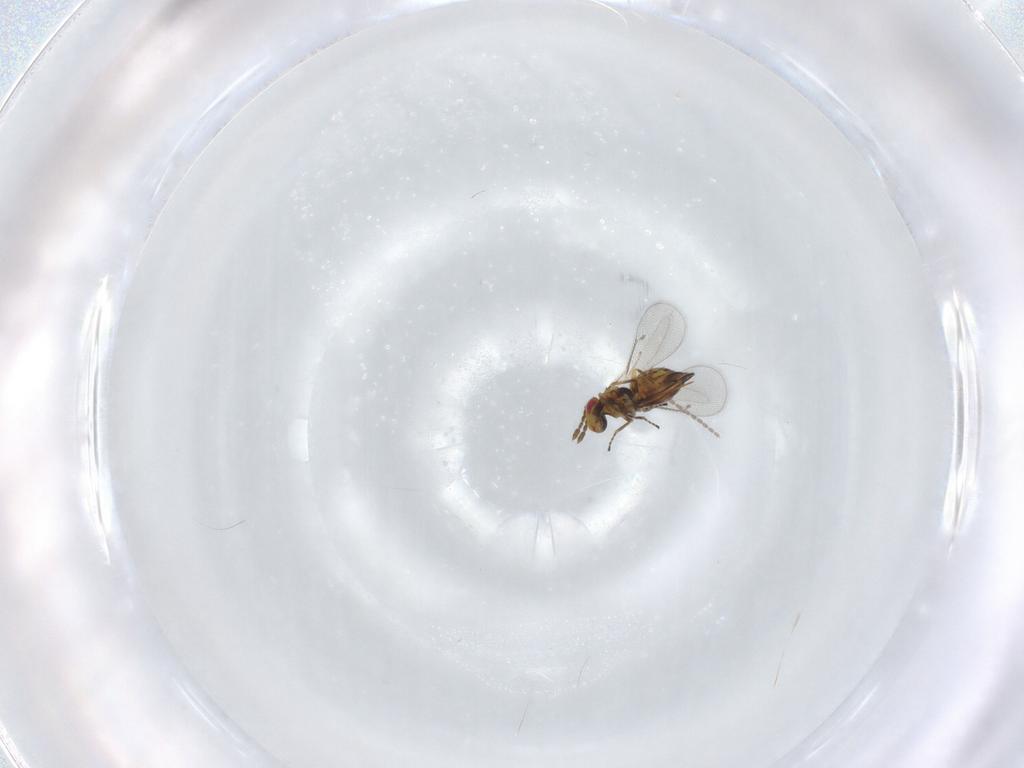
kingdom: Animalia
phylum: Arthropoda
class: Insecta
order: Hymenoptera
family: Eulophidae
